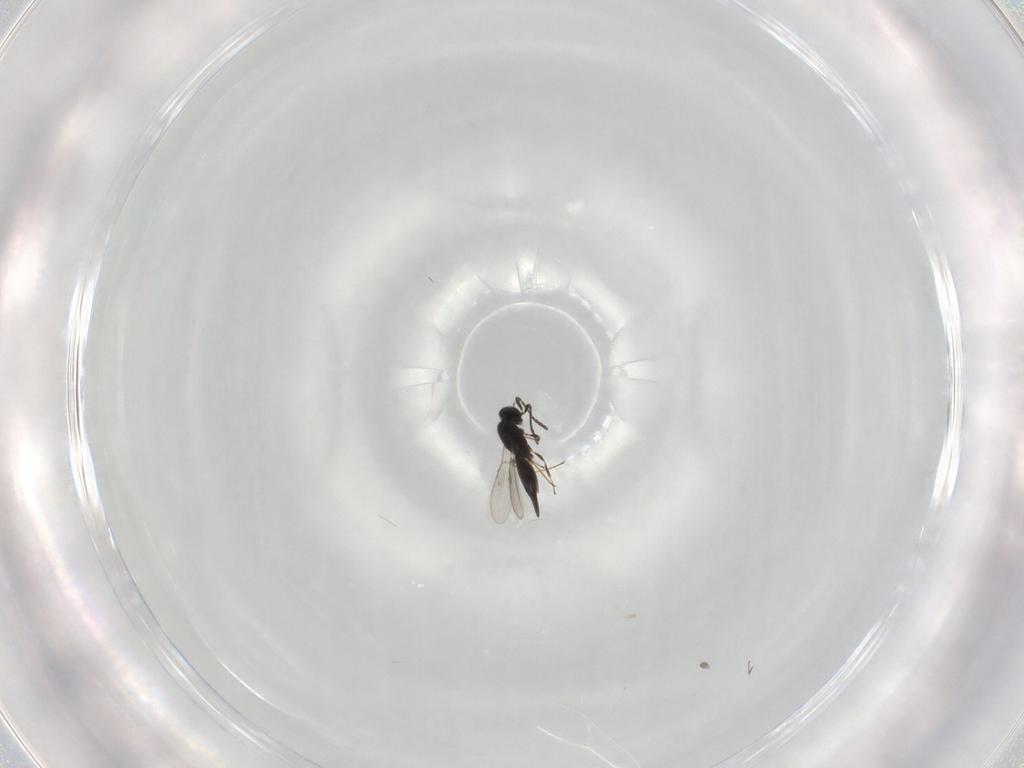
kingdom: Animalia
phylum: Arthropoda
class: Insecta
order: Hymenoptera
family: Scelionidae
